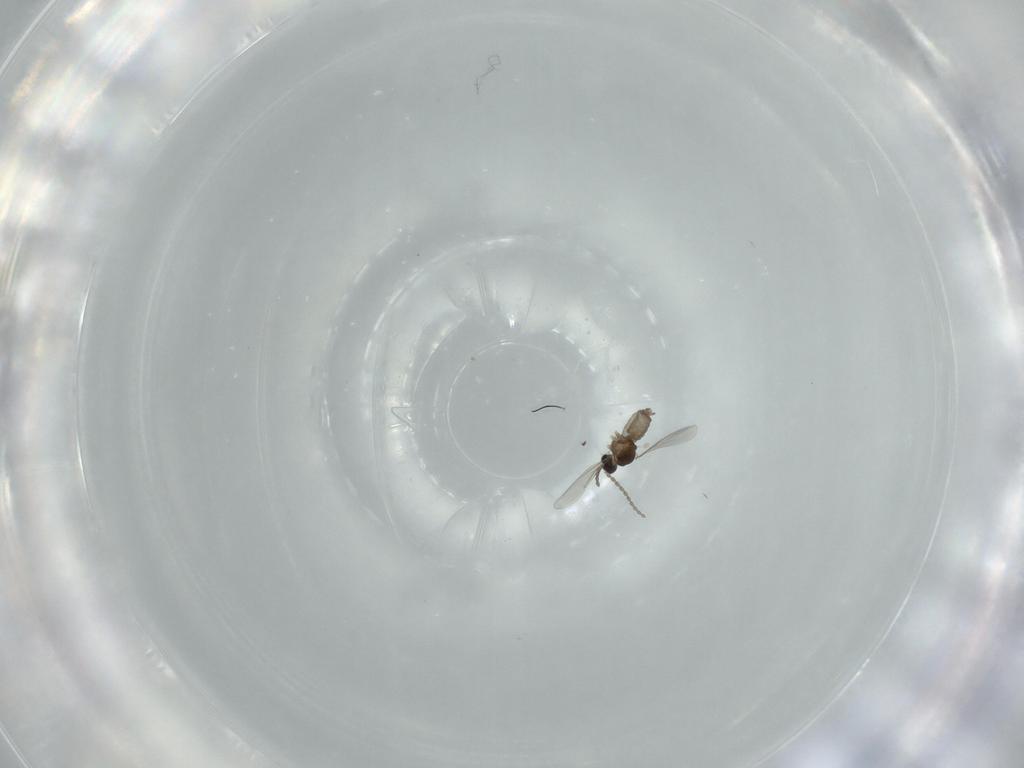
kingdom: Animalia
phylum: Arthropoda
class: Insecta
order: Diptera
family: Cecidomyiidae
